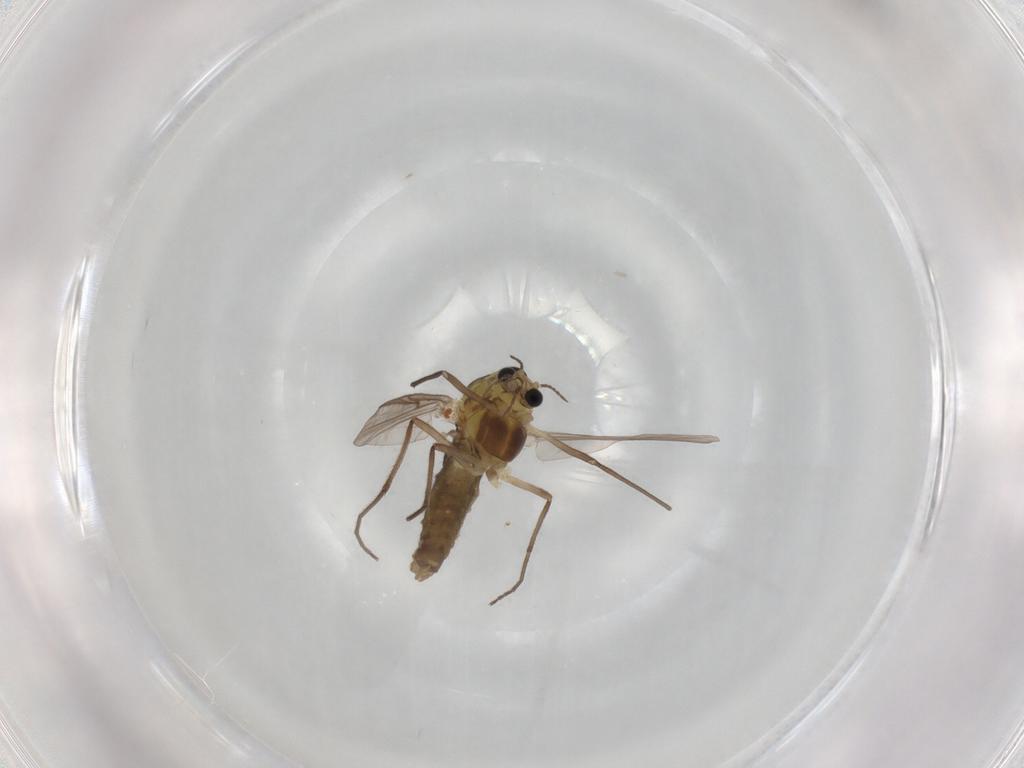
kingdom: Animalia
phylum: Arthropoda
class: Insecta
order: Diptera
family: Chironomidae
